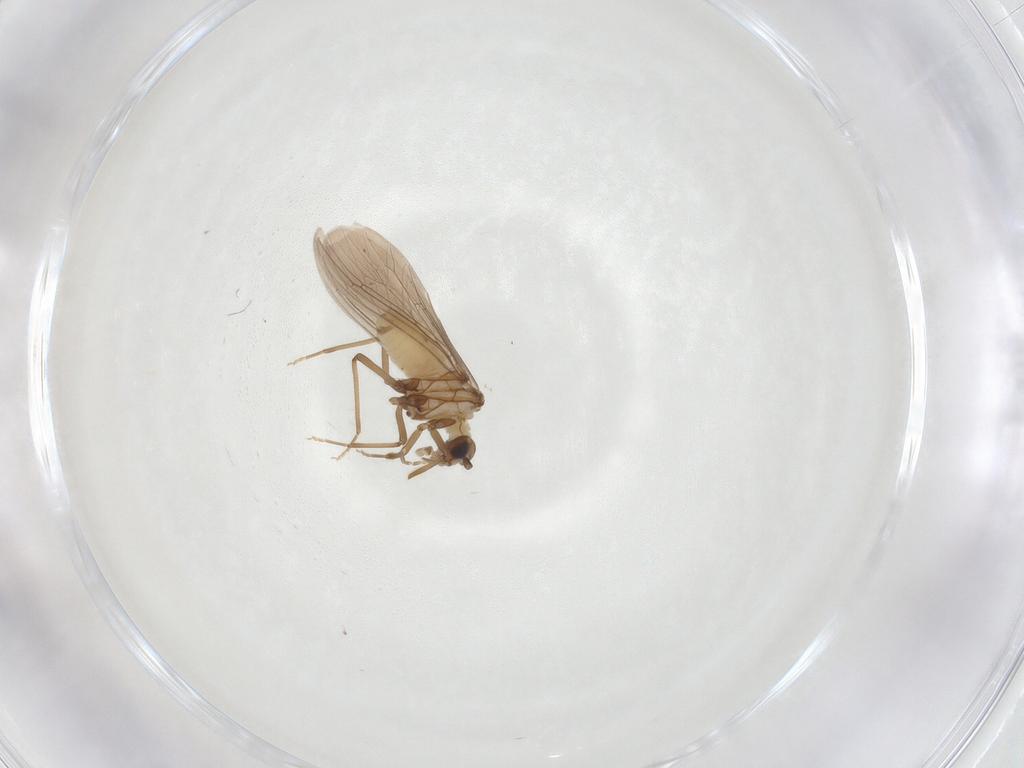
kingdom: Animalia
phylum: Arthropoda
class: Insecta
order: Neuroptera
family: Coniopterygidae
